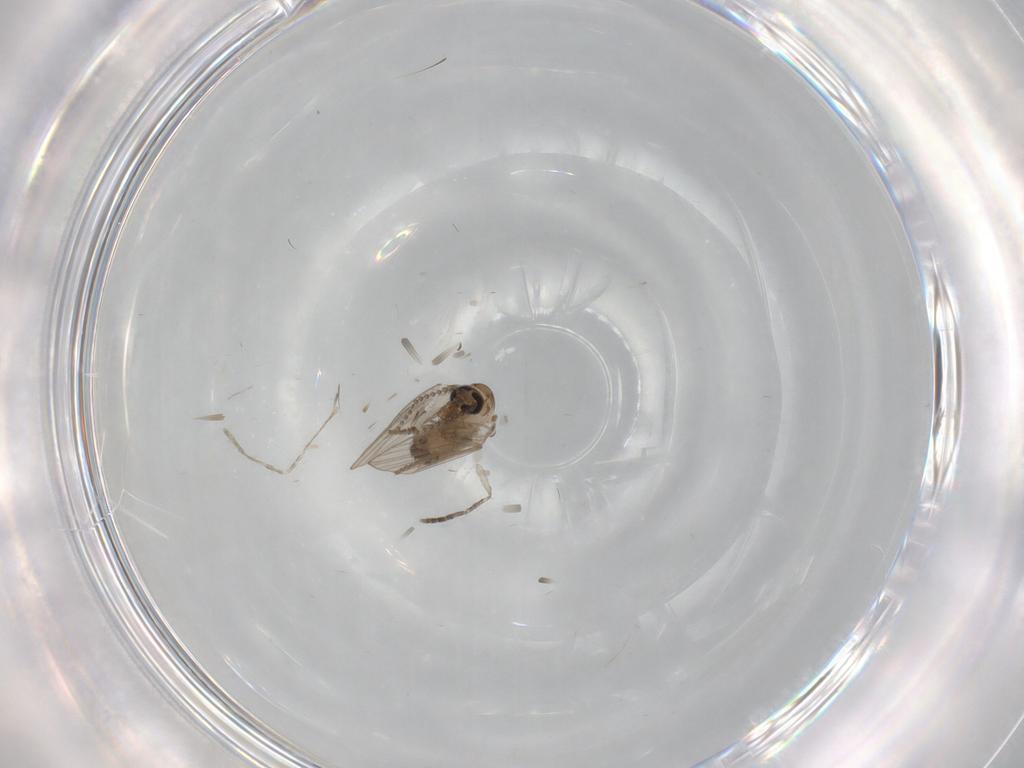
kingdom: Animalia
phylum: Arthropoda
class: Insecta
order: Diptera
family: Psychodidae
